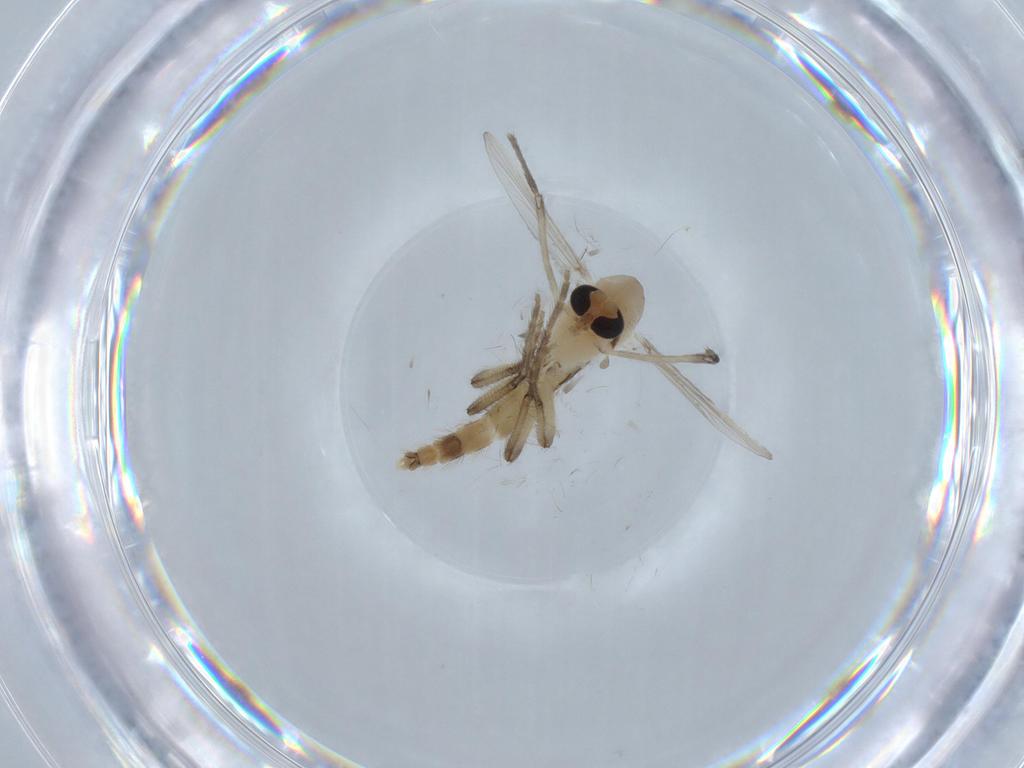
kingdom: Animalia
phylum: Arthropoda
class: Insecta
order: Diptera
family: Chironomidae
